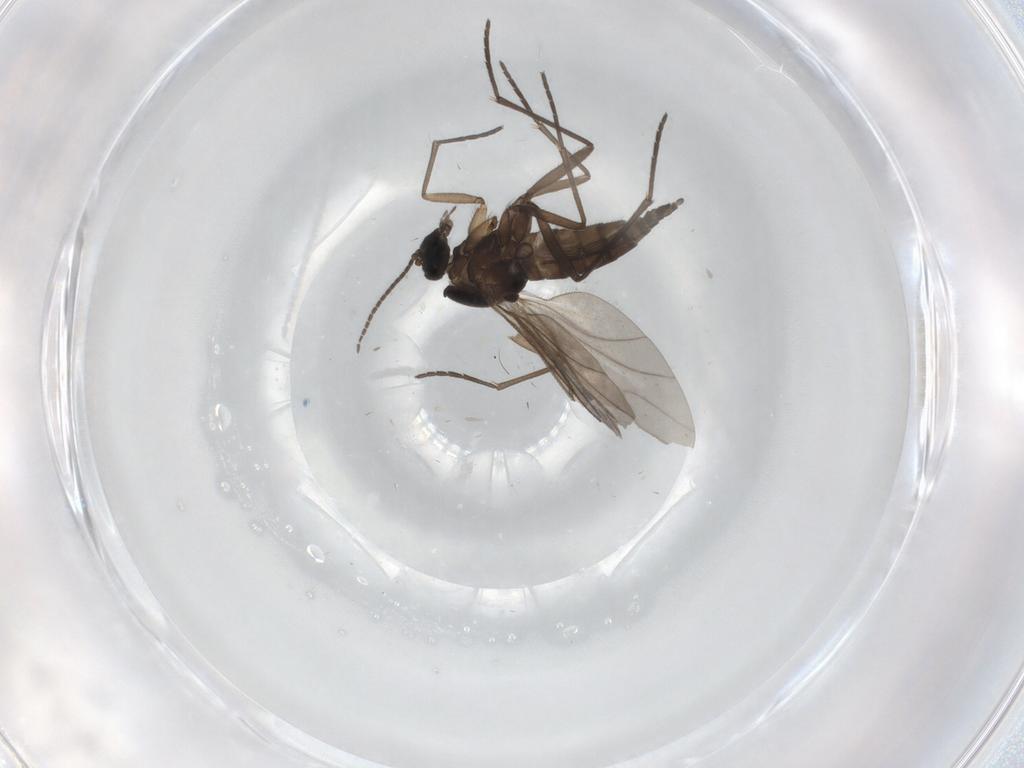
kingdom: Animalia
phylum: Arthropoda
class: Insecta
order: Diptera
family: Sciaridae
